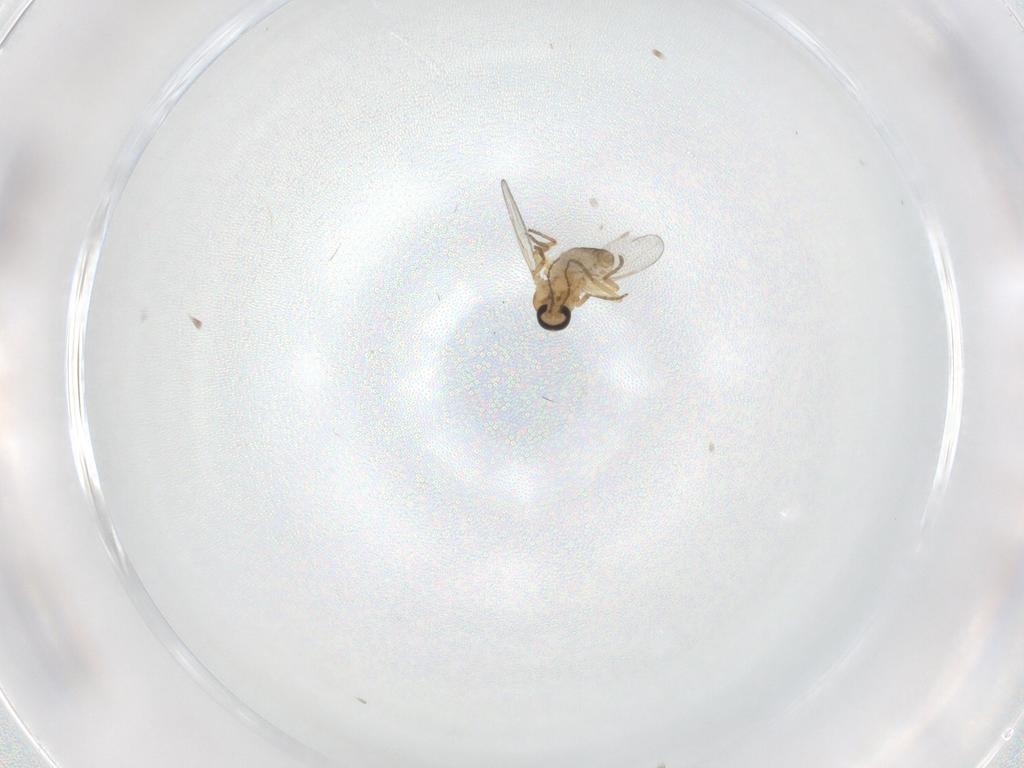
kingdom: Animalia
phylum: Arthropoda
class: Insecta
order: Diptera
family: Ceratopogonidae
